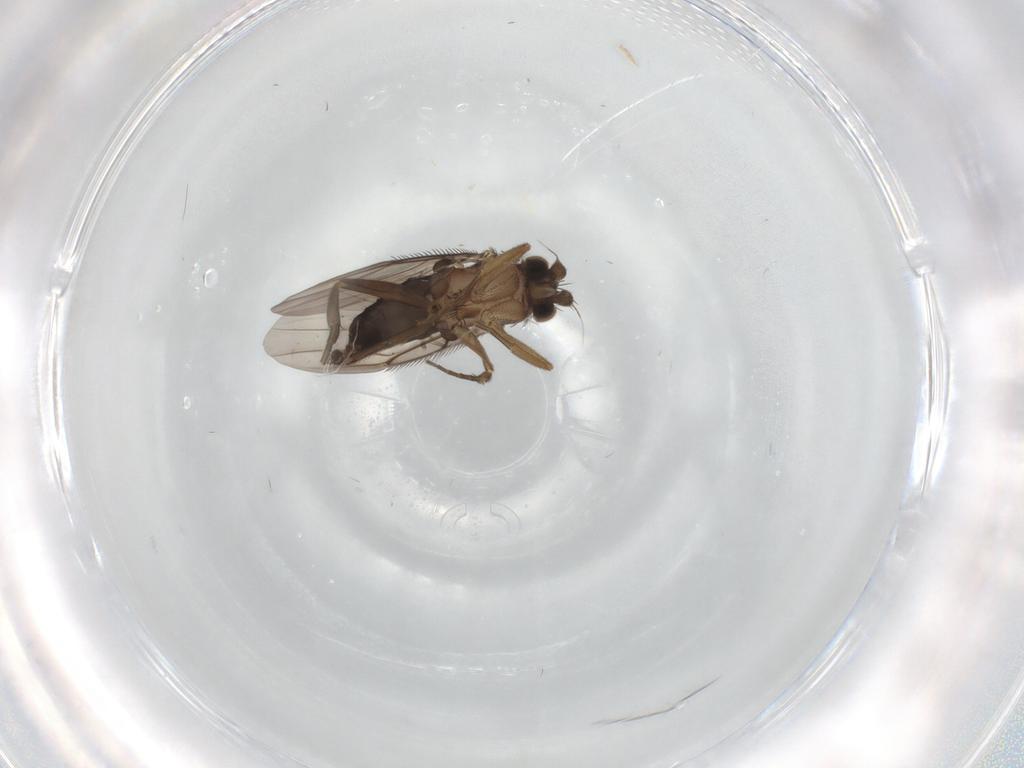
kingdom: Animalia
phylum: Arthropoda
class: Insecta
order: Diptera
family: Phoridae
